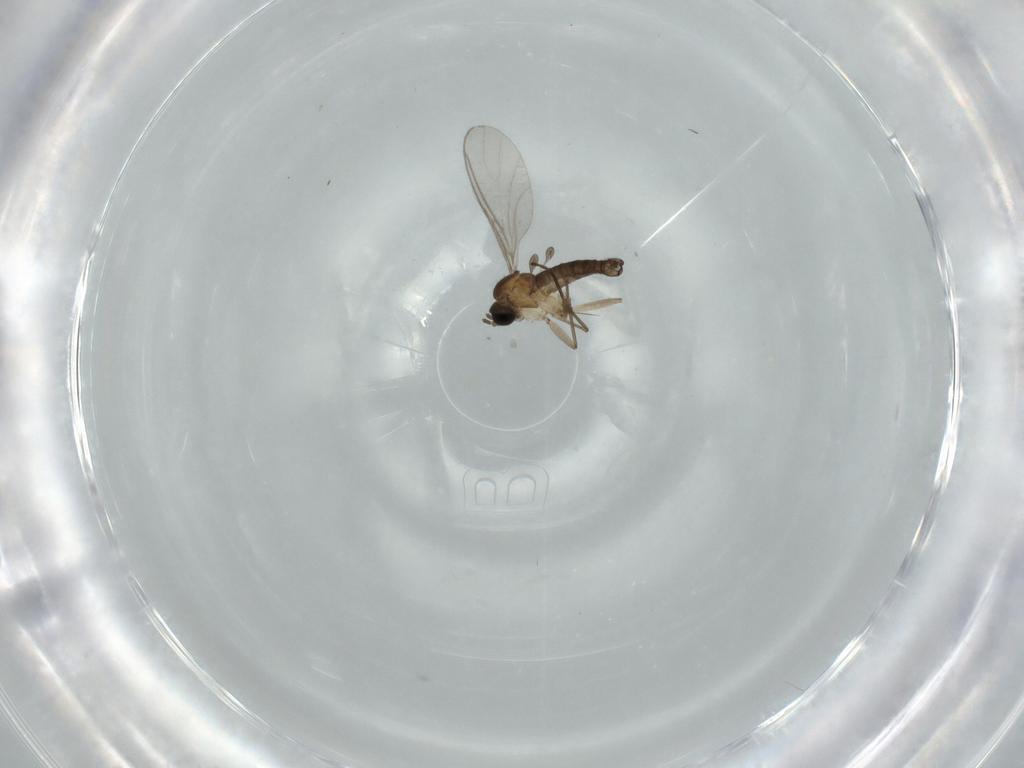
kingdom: Animalia
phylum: Arthropoda
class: Insecta
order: Diptera
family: Sciaridae
